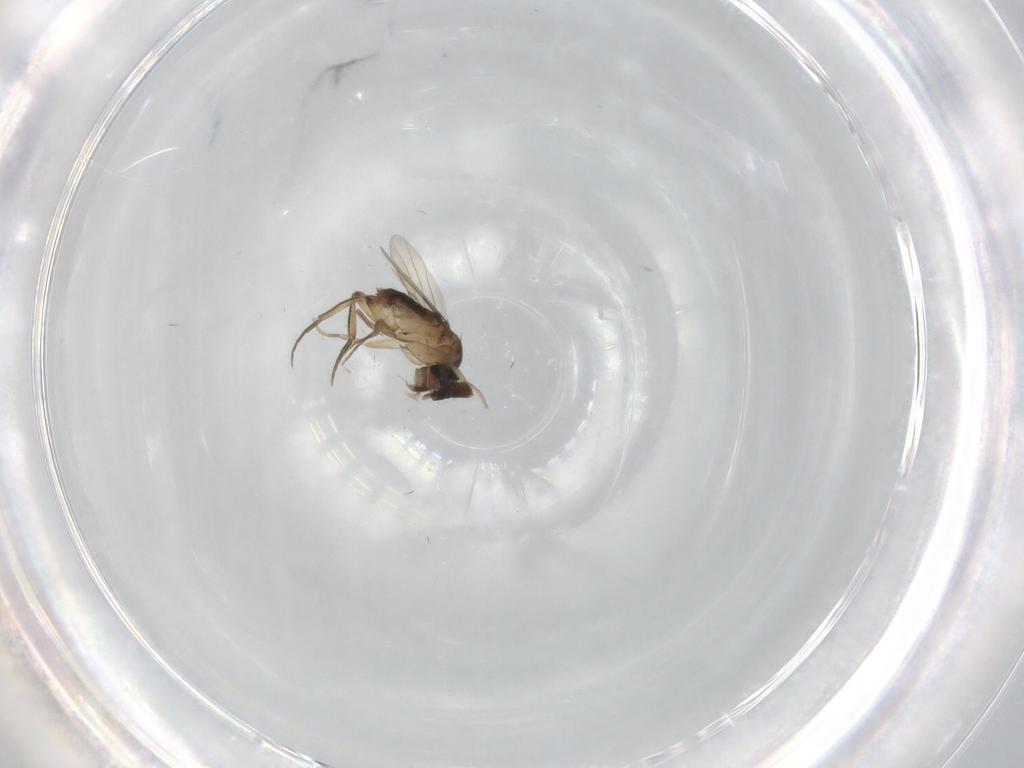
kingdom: Animalia
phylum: Arthropoda
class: Insecta
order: Diptera
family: Phoridae
